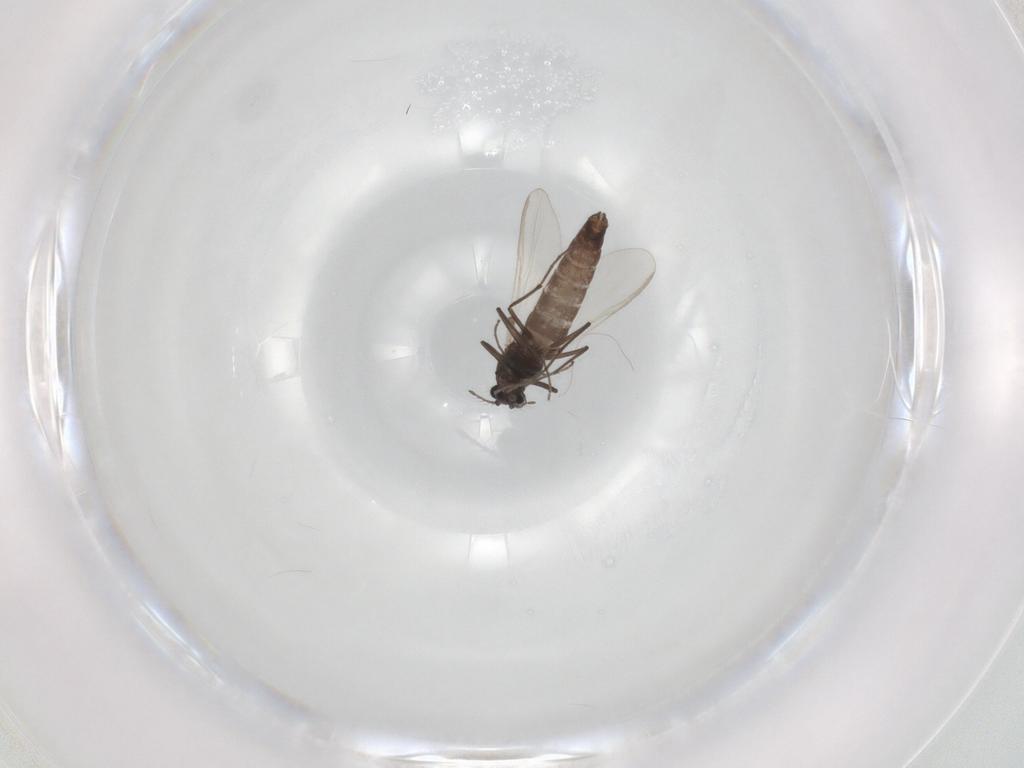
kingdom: Animalia
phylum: Arthropoda
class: Insecta
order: Diptera
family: Chironomidae
